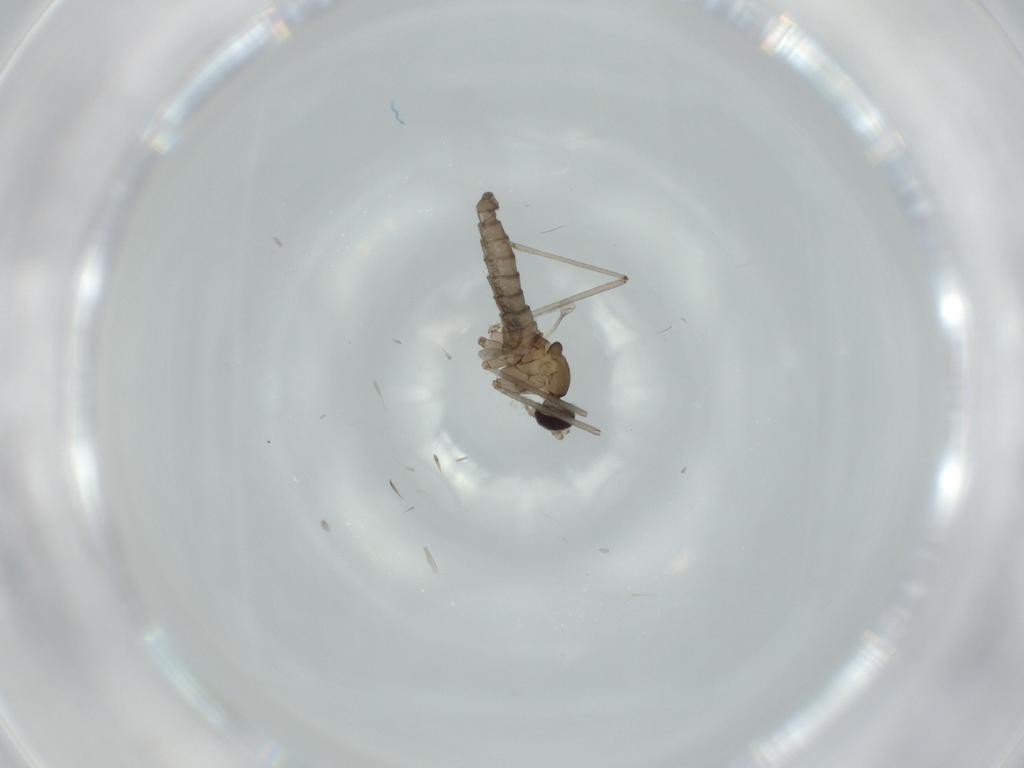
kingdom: Animalia
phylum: Arthropoda
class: Insecta
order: Diptera
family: Cecidomyiidae
